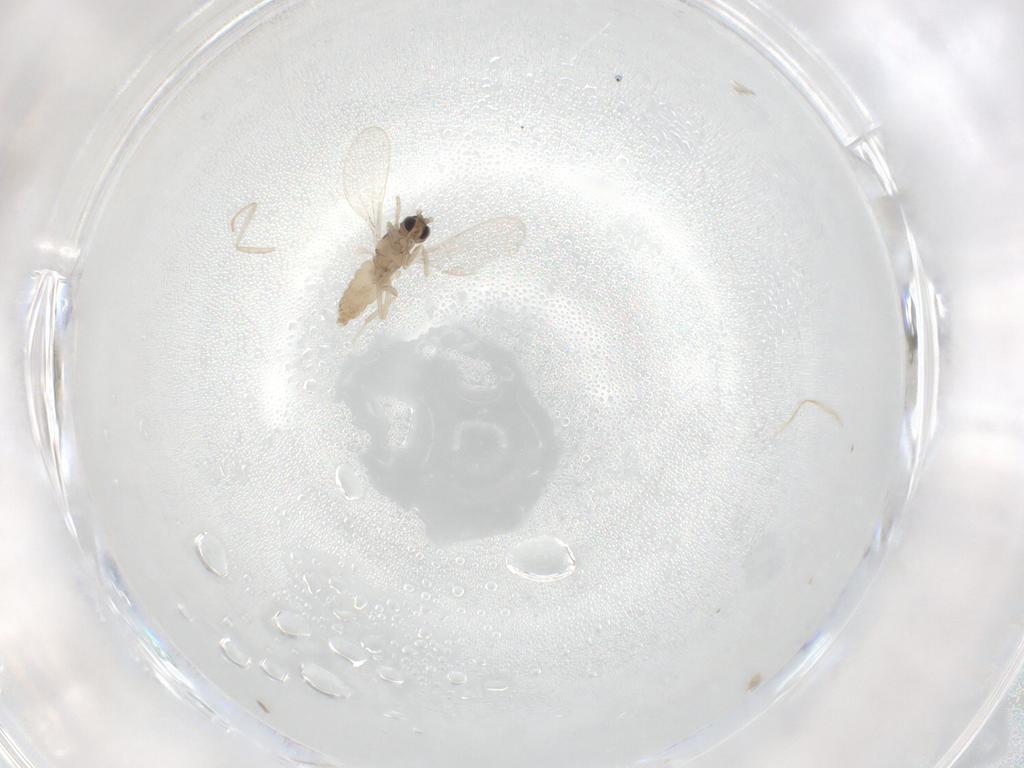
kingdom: Animalia
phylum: Arthropoda
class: Insecta
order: Diptera
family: Cecidomyiidae
